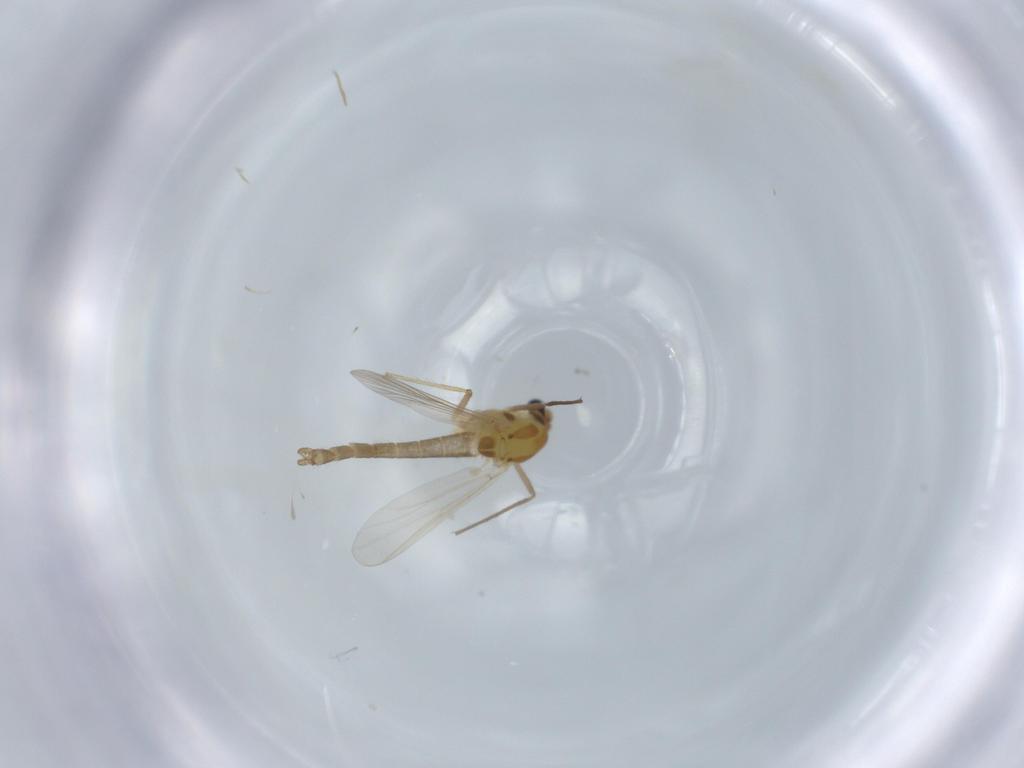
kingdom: Animalia
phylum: Arthropoda
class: Insecta
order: Diptera
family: Chironomidae
